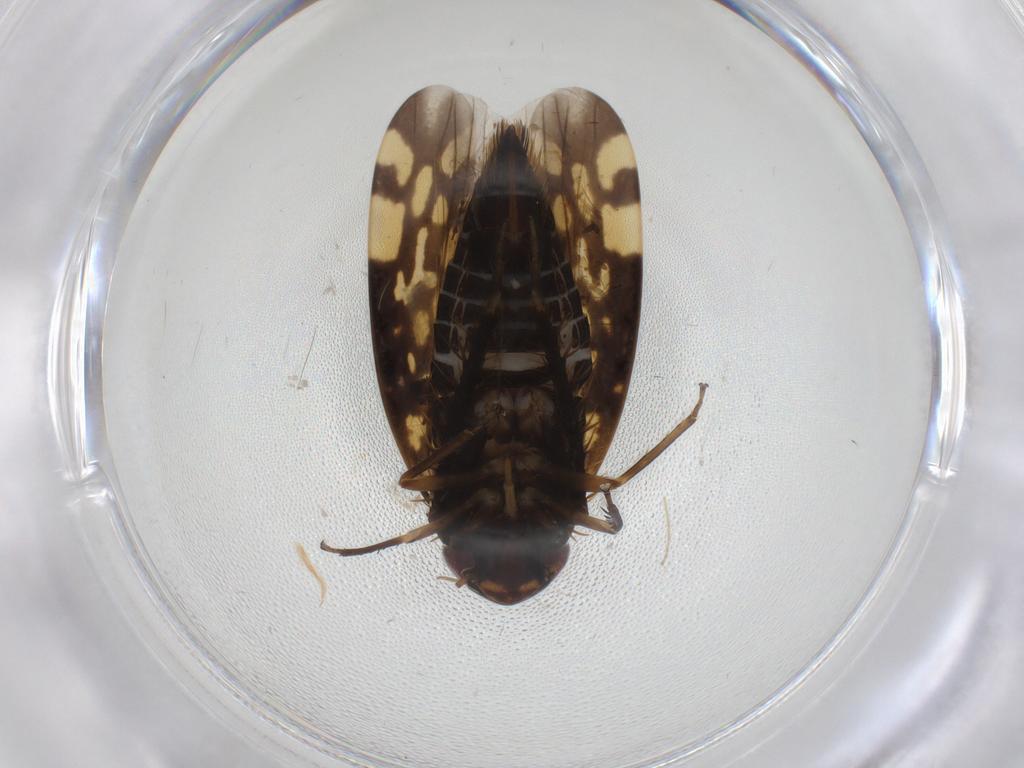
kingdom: Animalia
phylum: Arthropoda
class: Insecta
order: Hemiptera
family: Cicadellidae
